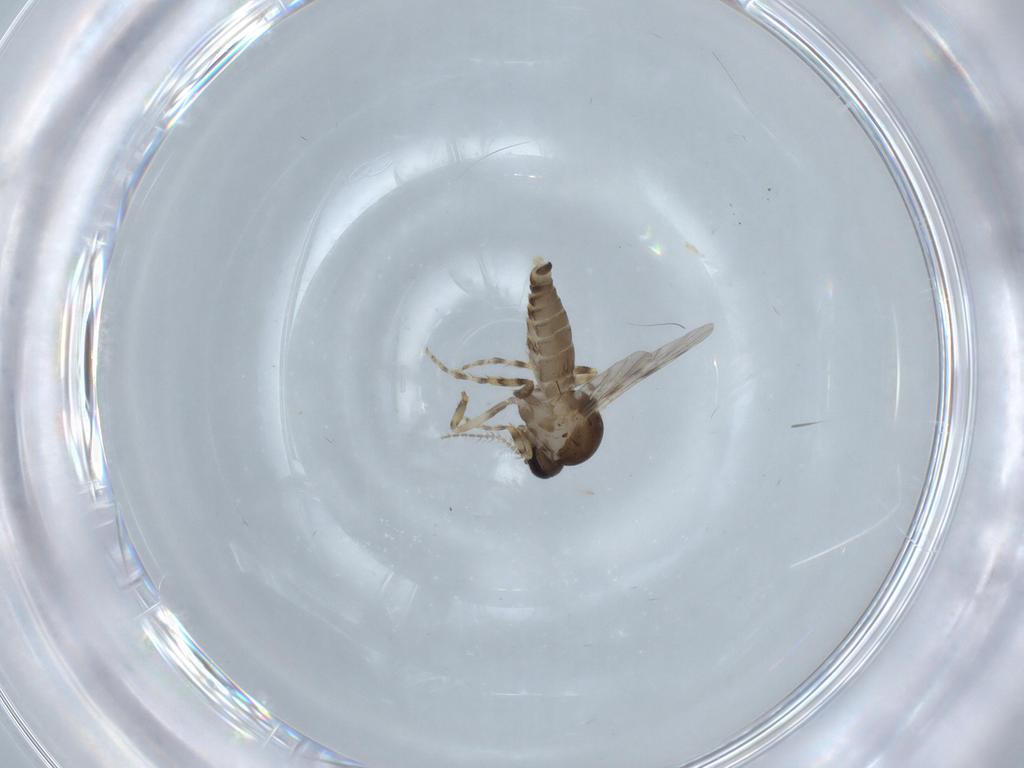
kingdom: Animalia
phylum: Arthropoda
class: Insecta
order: Diptera
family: Ceratopogonidae
